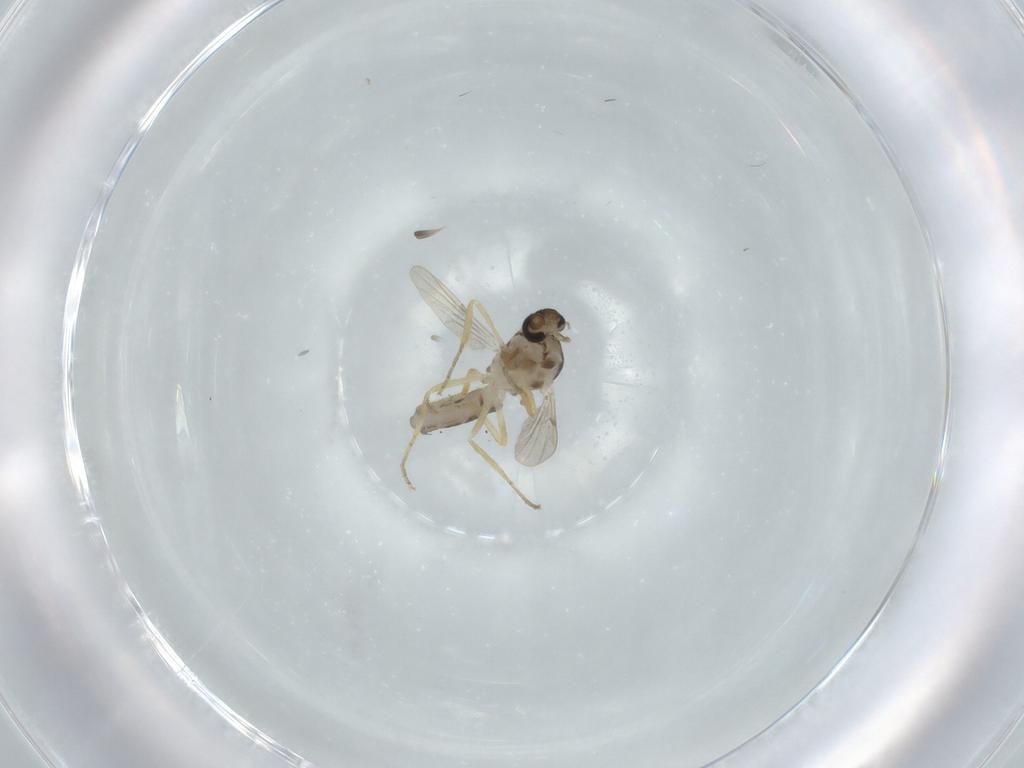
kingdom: Animalia
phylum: Arthropoda
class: Insecta
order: Diptera
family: Ceratopogonidae
